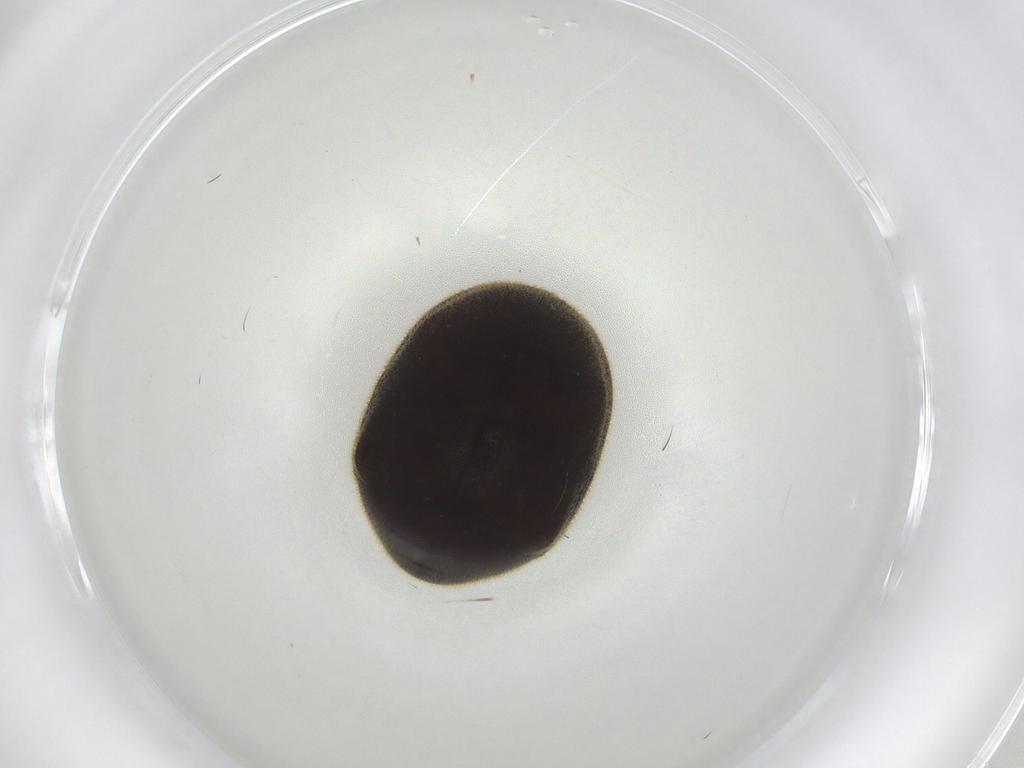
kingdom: Animalia
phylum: Arthropoda
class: Insecta
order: Coleoptera
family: Ptinidae
